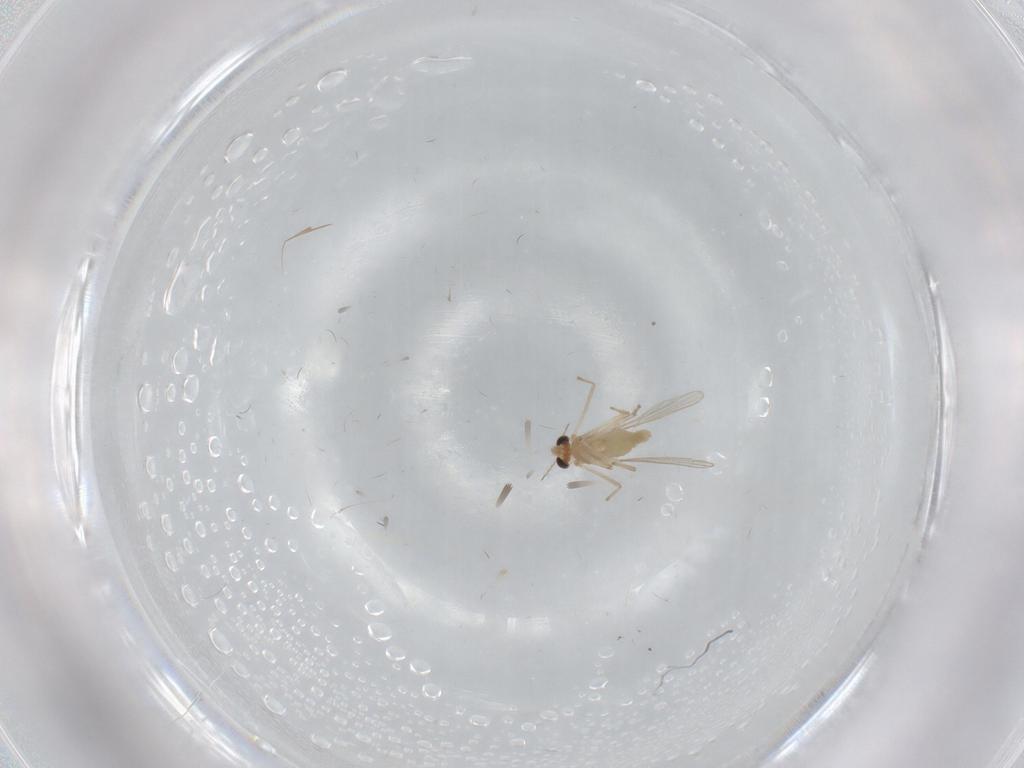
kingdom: Animalia
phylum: Arthropoda
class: Insecta
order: Diptera
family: Chironomidae
